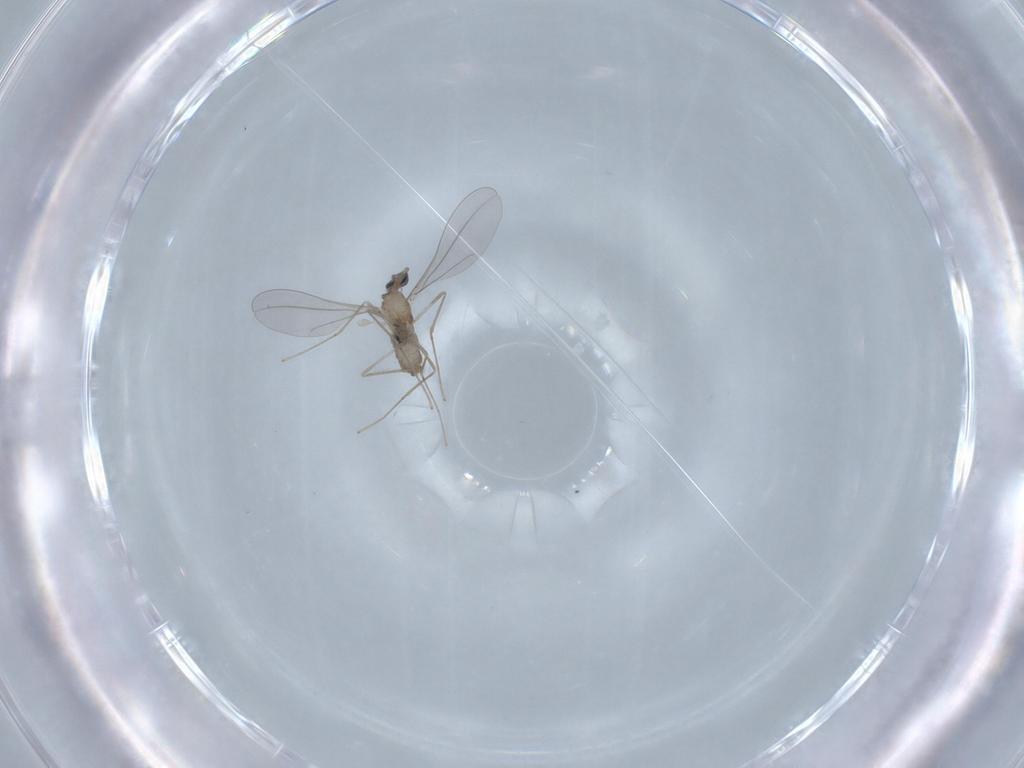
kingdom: Animalia
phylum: Arthropoda
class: Insecta
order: Diptera
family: Cecidomyiidae
